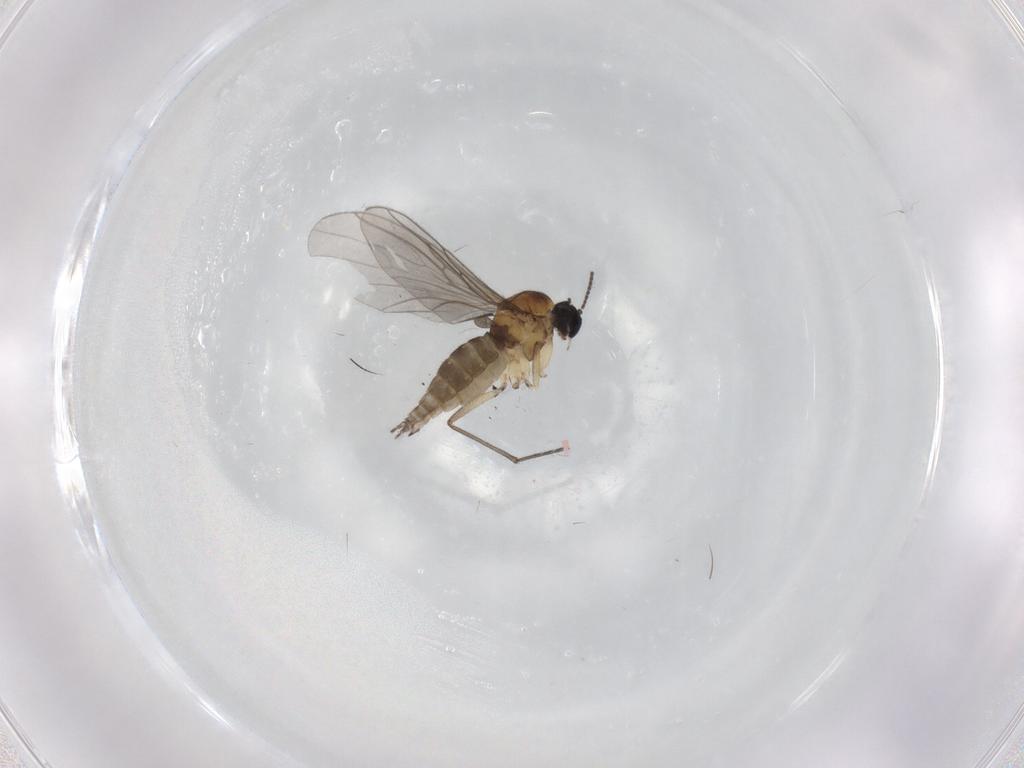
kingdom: Animalia
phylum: Arthropoda
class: Insecta
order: Diptera
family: Sciaridae
